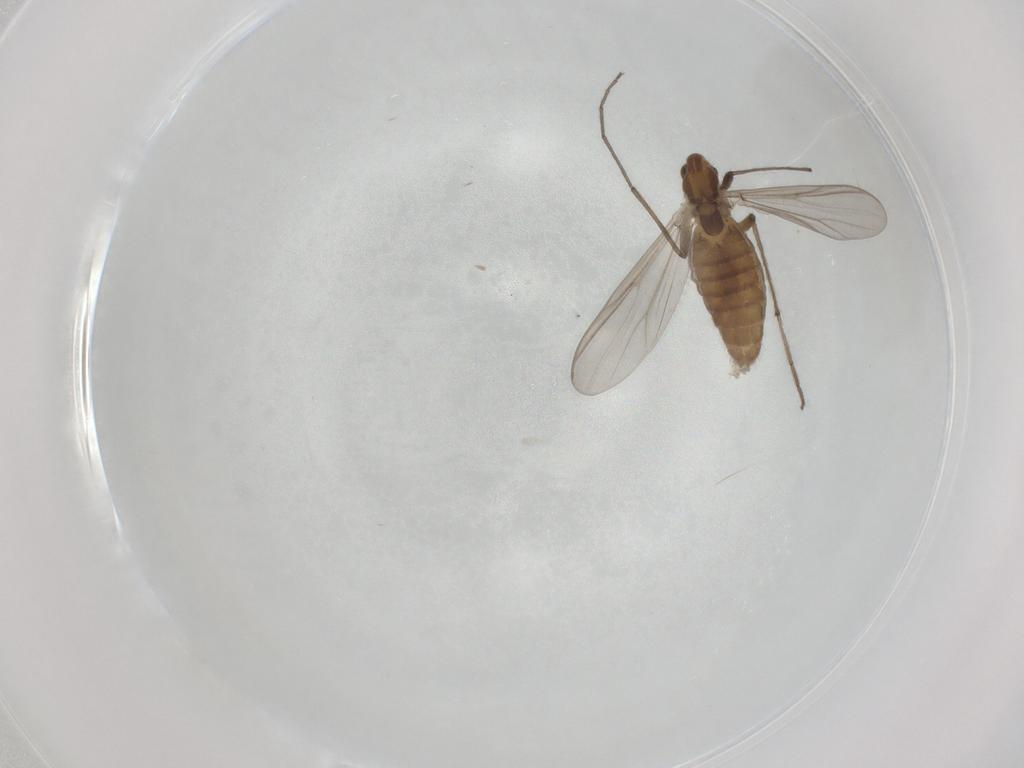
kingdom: Animalia
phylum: Arthropoda
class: Insecta
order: Diptera
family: Chironomidae
